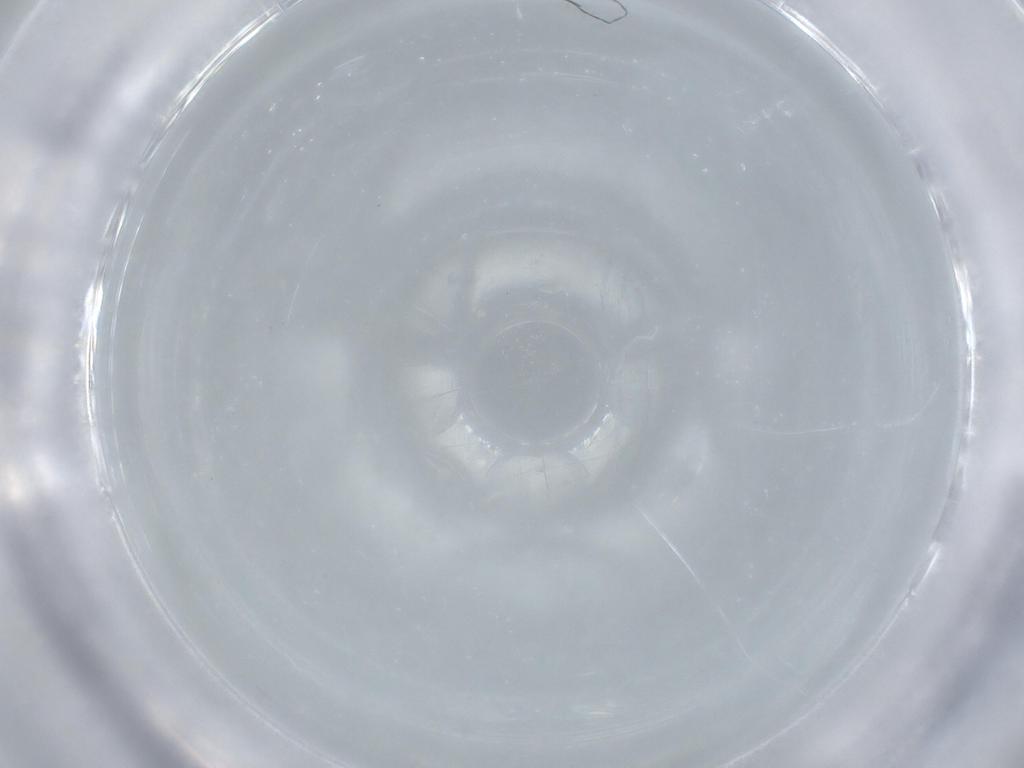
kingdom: Animalia
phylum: Arthropoda
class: Insecta
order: Diptera
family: Psychodidae
